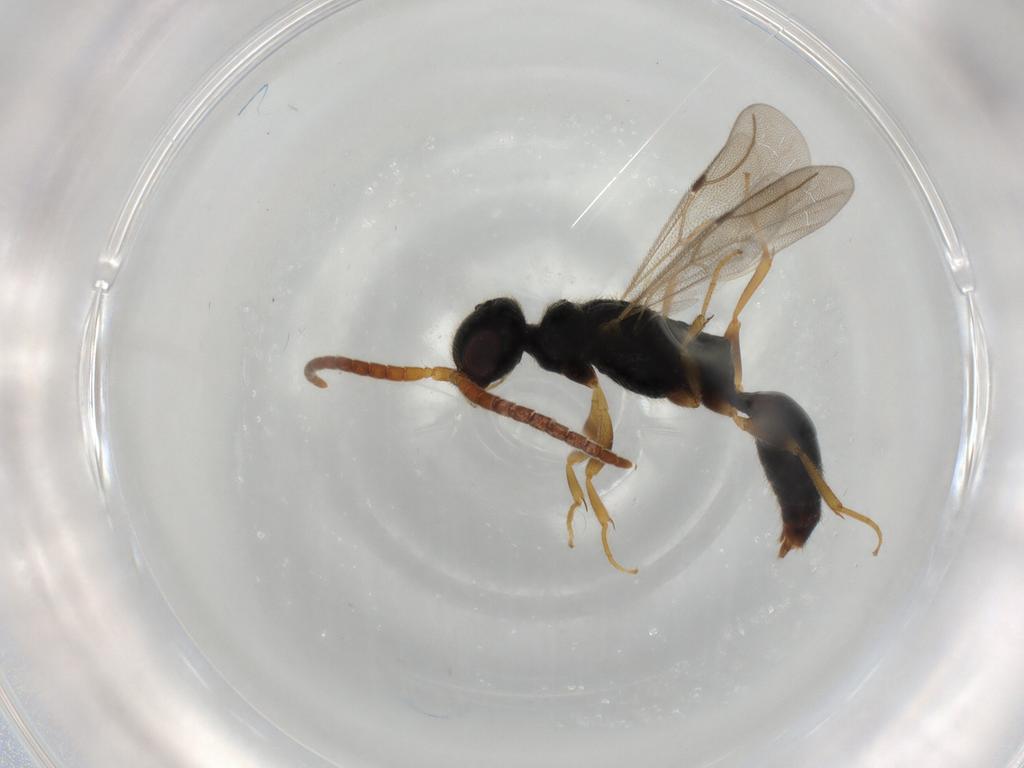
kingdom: Animalia
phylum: Arthropoda
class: Insecta
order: Hymenoptera
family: Bethylidae
